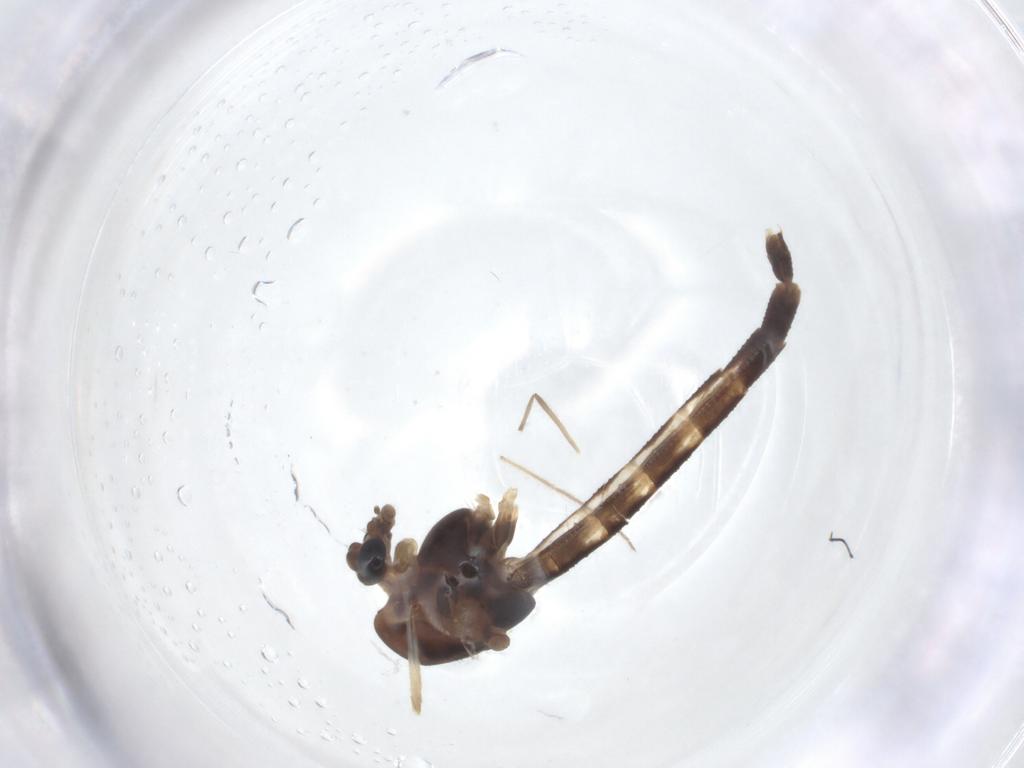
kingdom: Animalia
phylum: Arthropoda
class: Insecta
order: Diptera
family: Chironomidae
